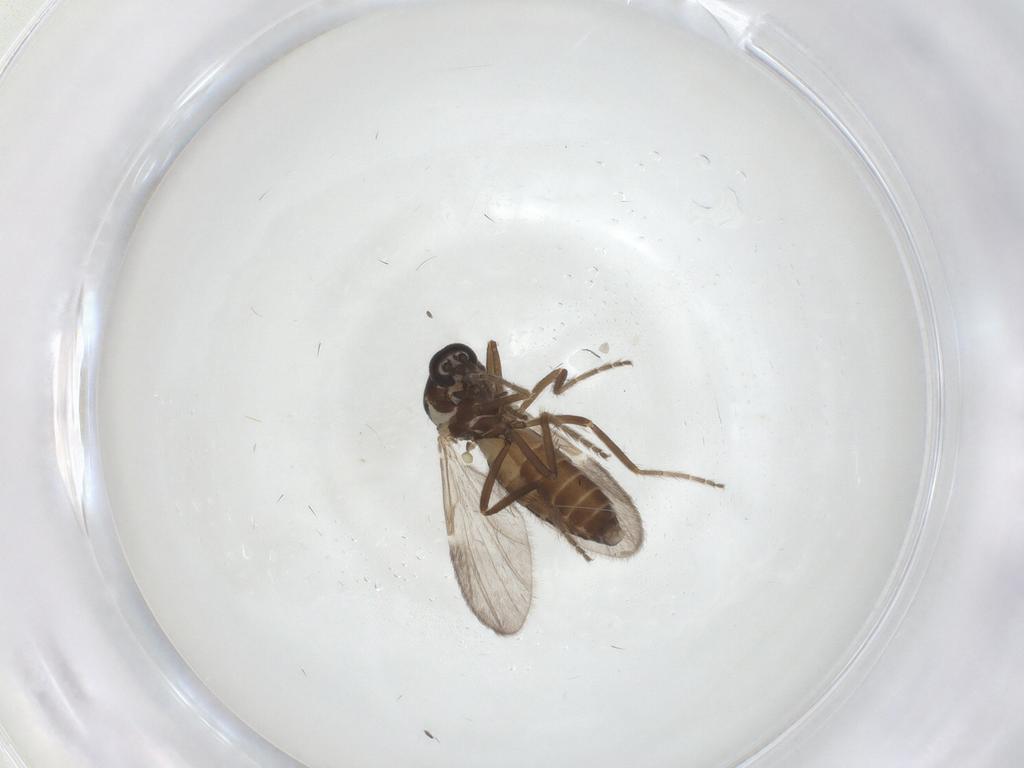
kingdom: Animalia
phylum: Arthropoda
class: Insecta
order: Diptera
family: Ceratopogonidae
